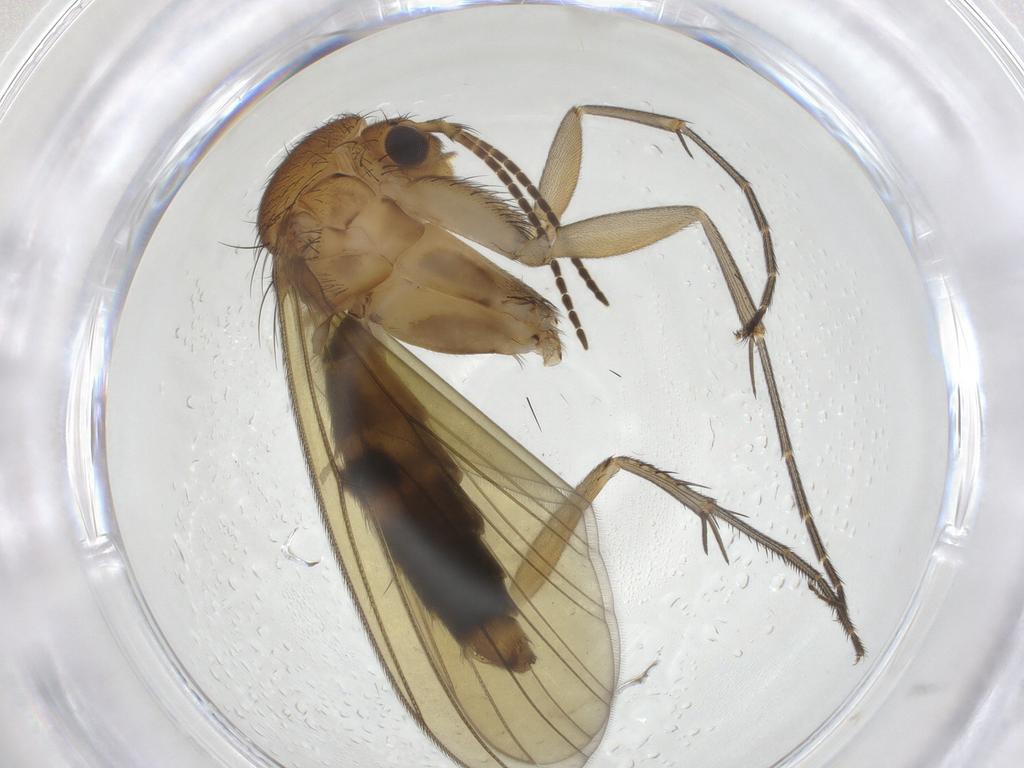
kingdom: Animalia
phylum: Arthropoda
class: Insecta
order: Diptera
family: Mycetophilidae
